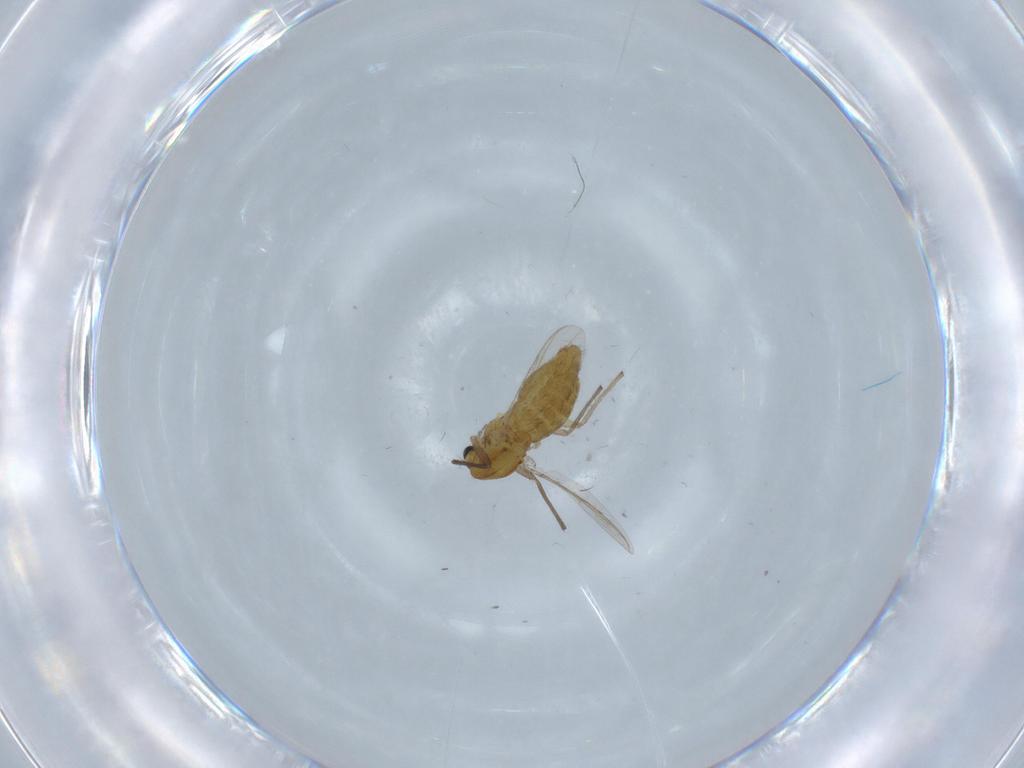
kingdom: Animalia
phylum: Arthropoda
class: Insecta
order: Diptera
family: Chironomidae
